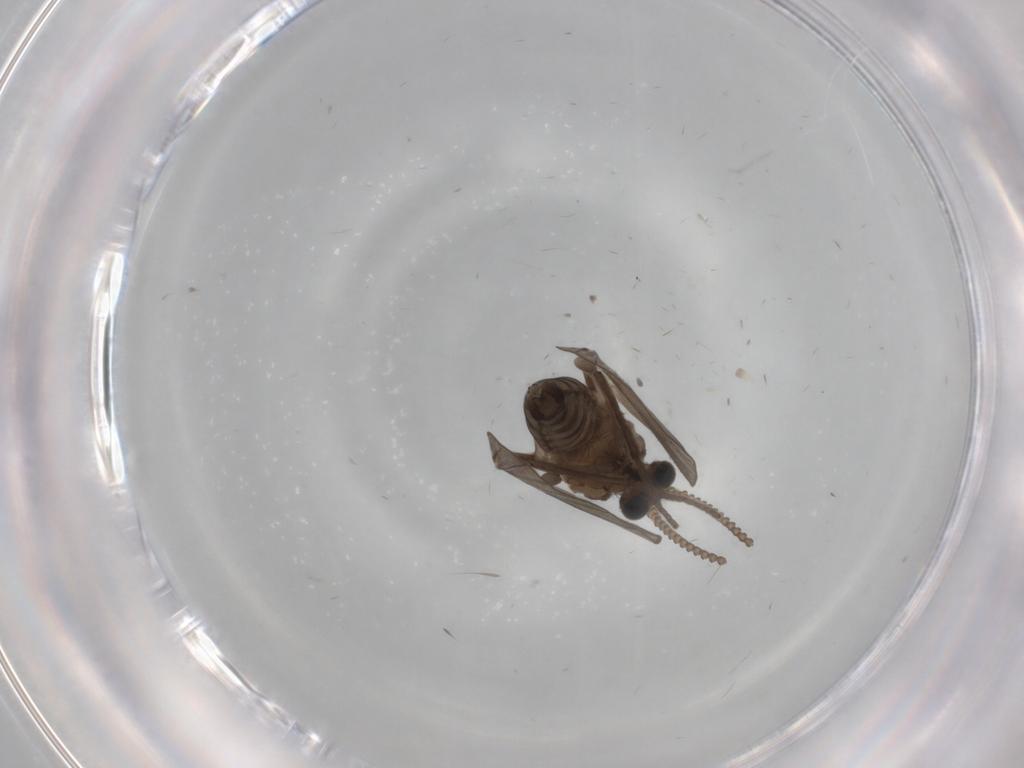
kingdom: Animalia
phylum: Arthropoda
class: Insecta
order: Diptera
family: Psychodidae
